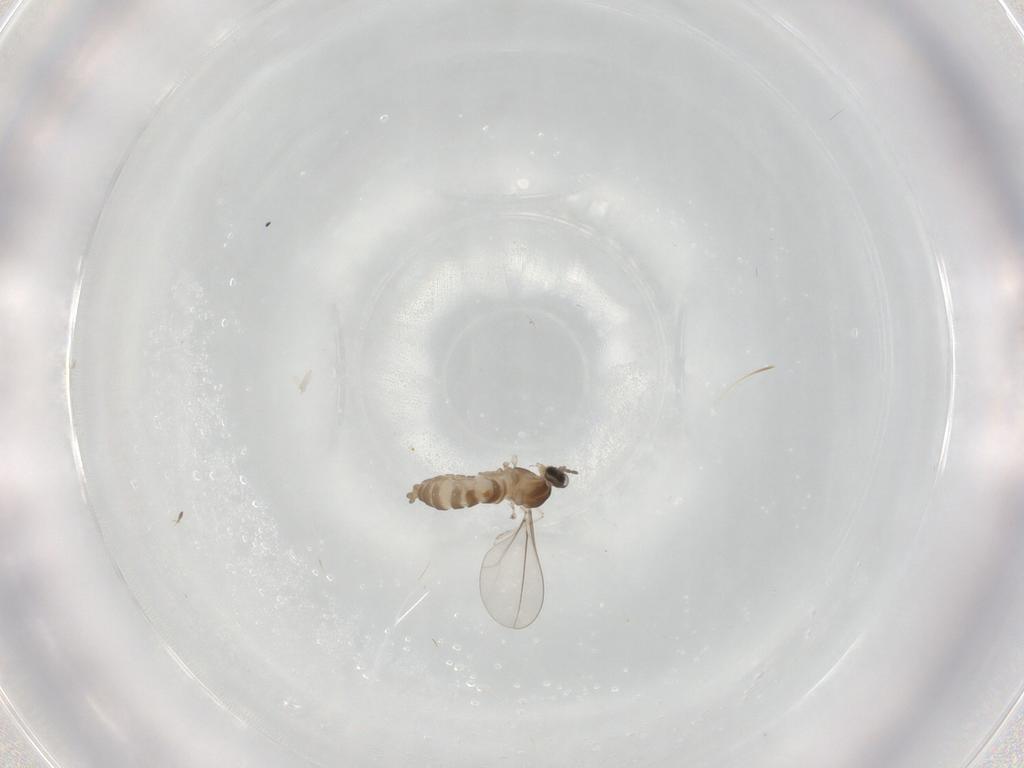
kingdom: Animalia
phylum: Arthropoda
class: Insecta
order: Diptera
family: Cecidomyiidae
